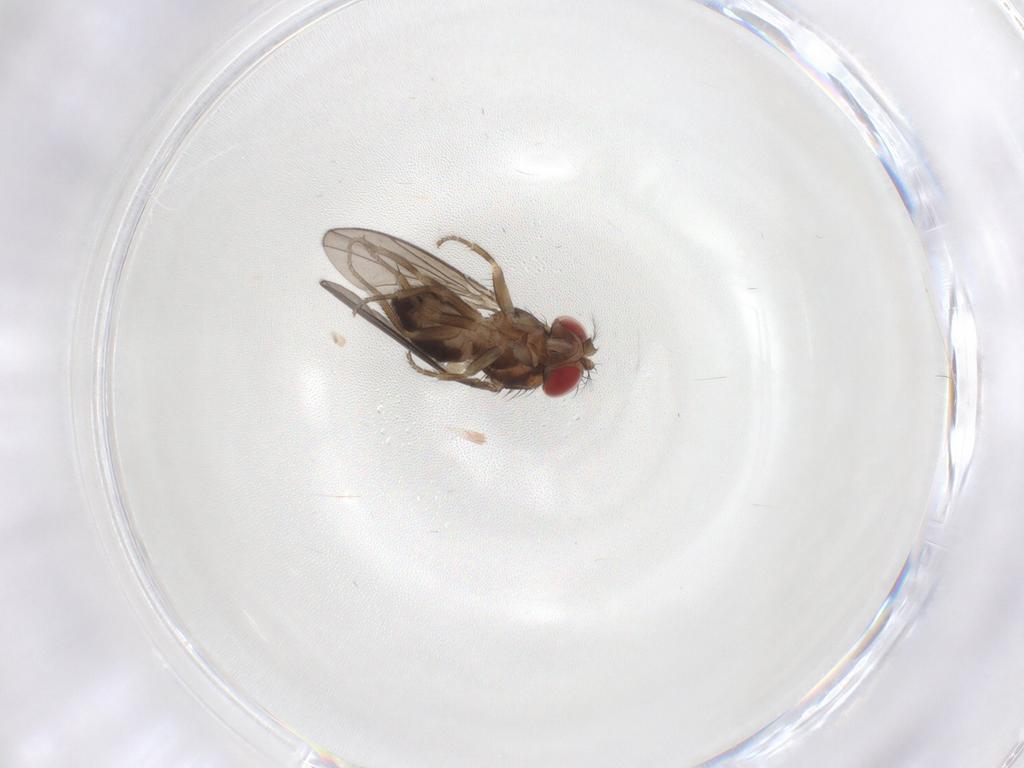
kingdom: Animalia
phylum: Arthropoda
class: Insecta
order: Diptera
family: Drosophilidae
